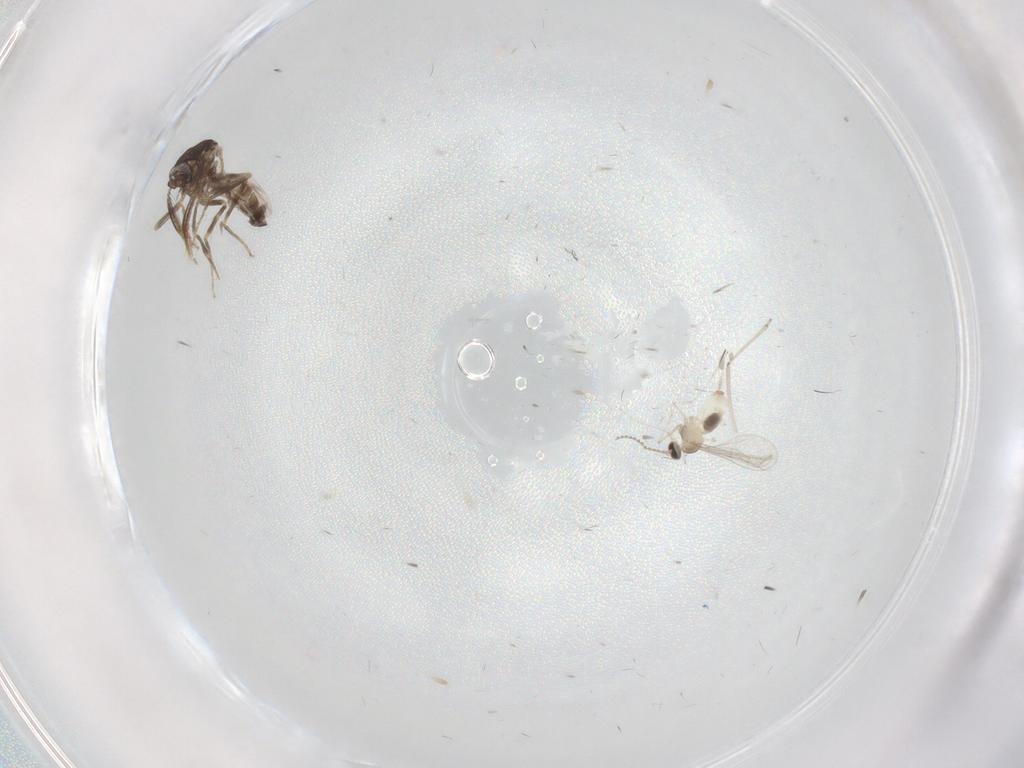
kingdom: Animalia
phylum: Arthropoda
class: Insecta
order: Diptera
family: Ceratopogonidae
